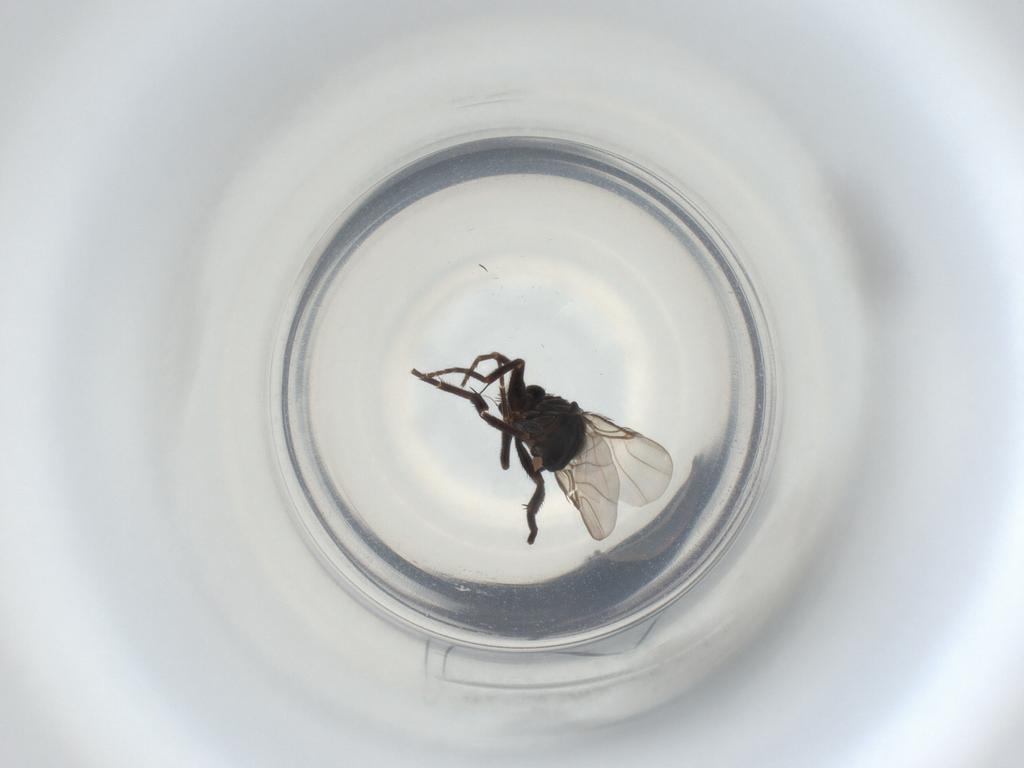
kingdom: Animalia
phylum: Arthropoda
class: Insecta
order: Diptera
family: Phoridae
